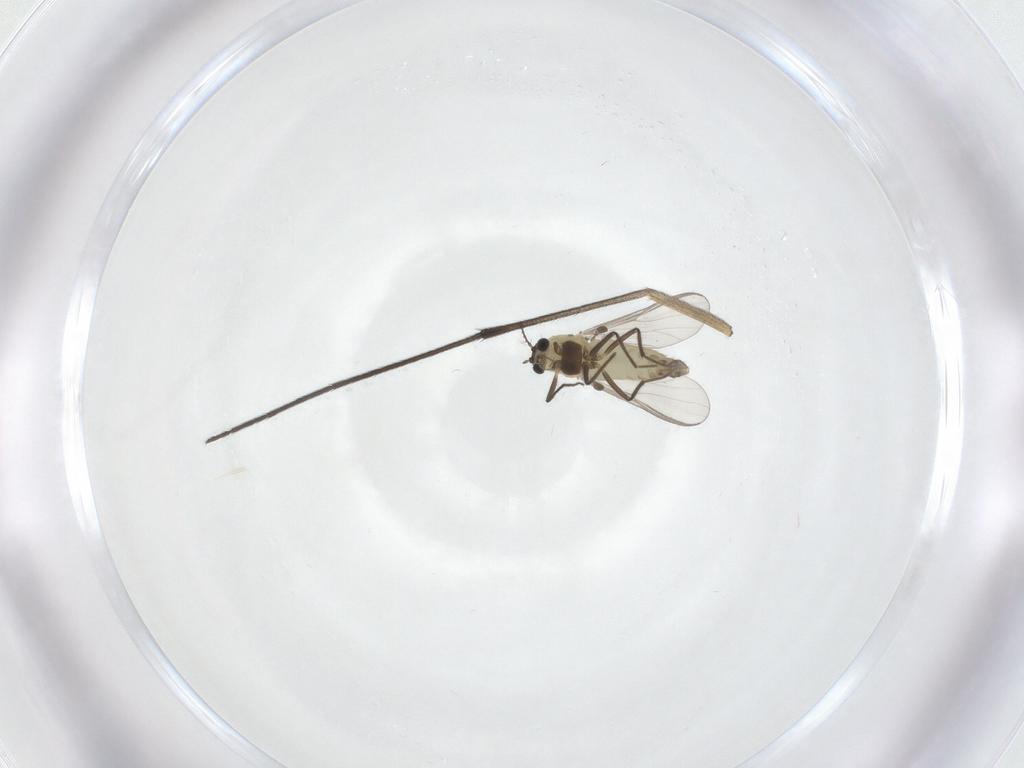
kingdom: Animalia
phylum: Arthropoda
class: Insecta
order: Diptera
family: Chironomidae
